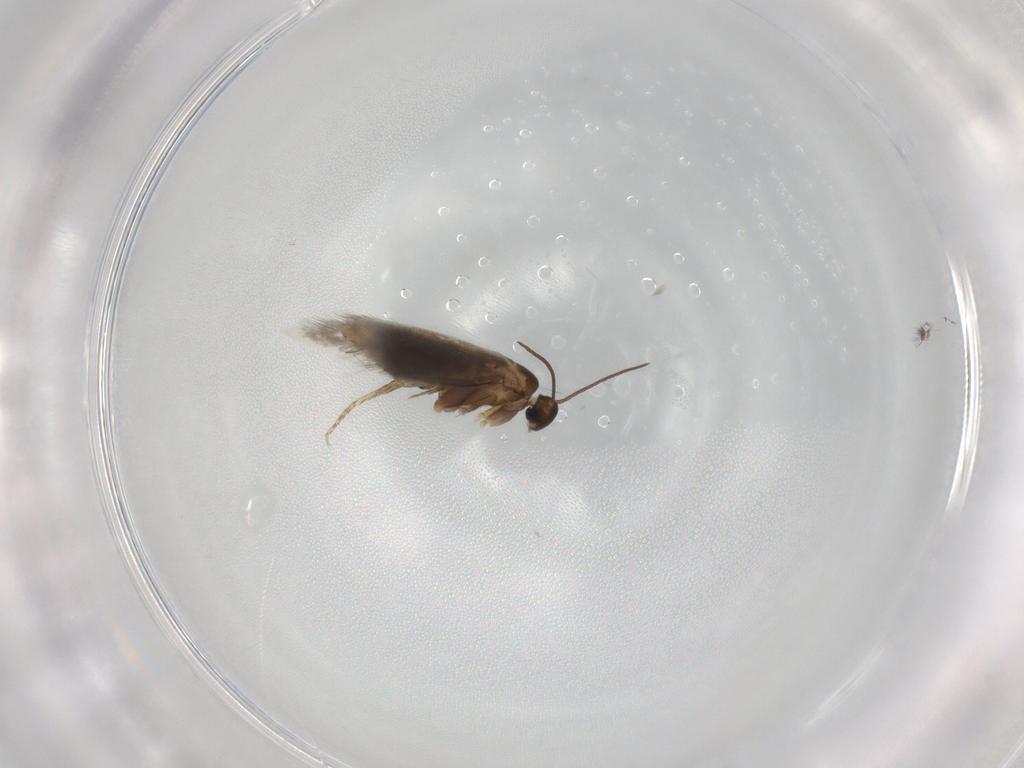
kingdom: Animalia
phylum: Arthropoda
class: Insecta
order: Lepidoptera
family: Heliozelidae
